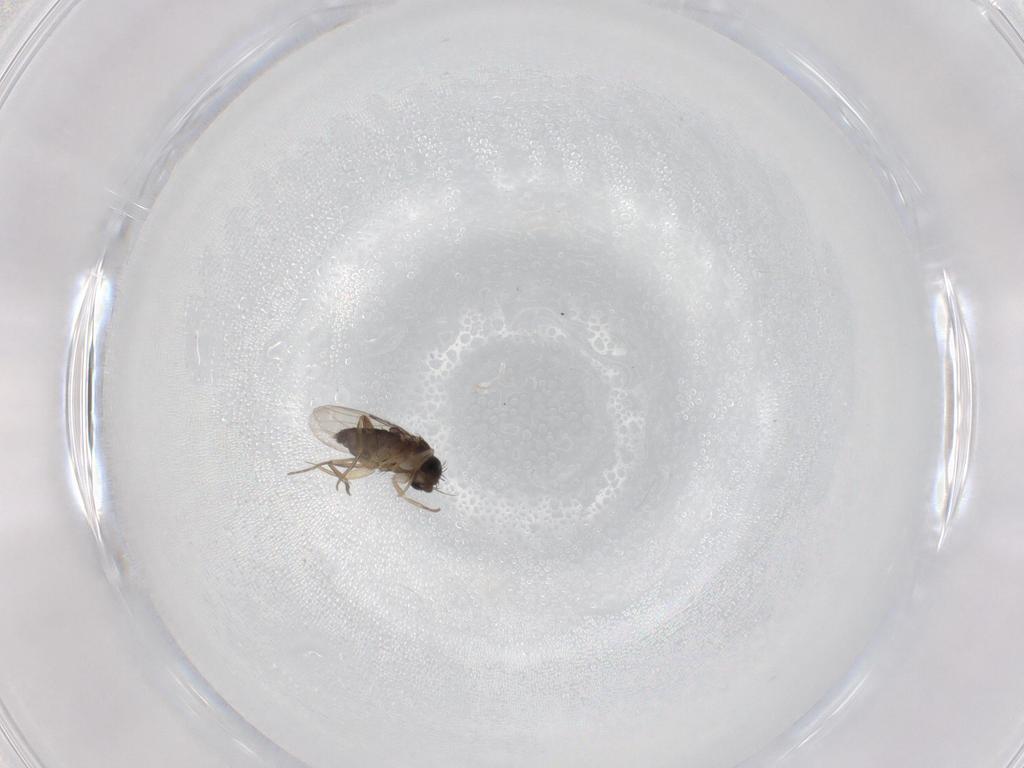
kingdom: Animalia
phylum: Arthropoda
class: Insecta
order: Diptera
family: Phoridae
